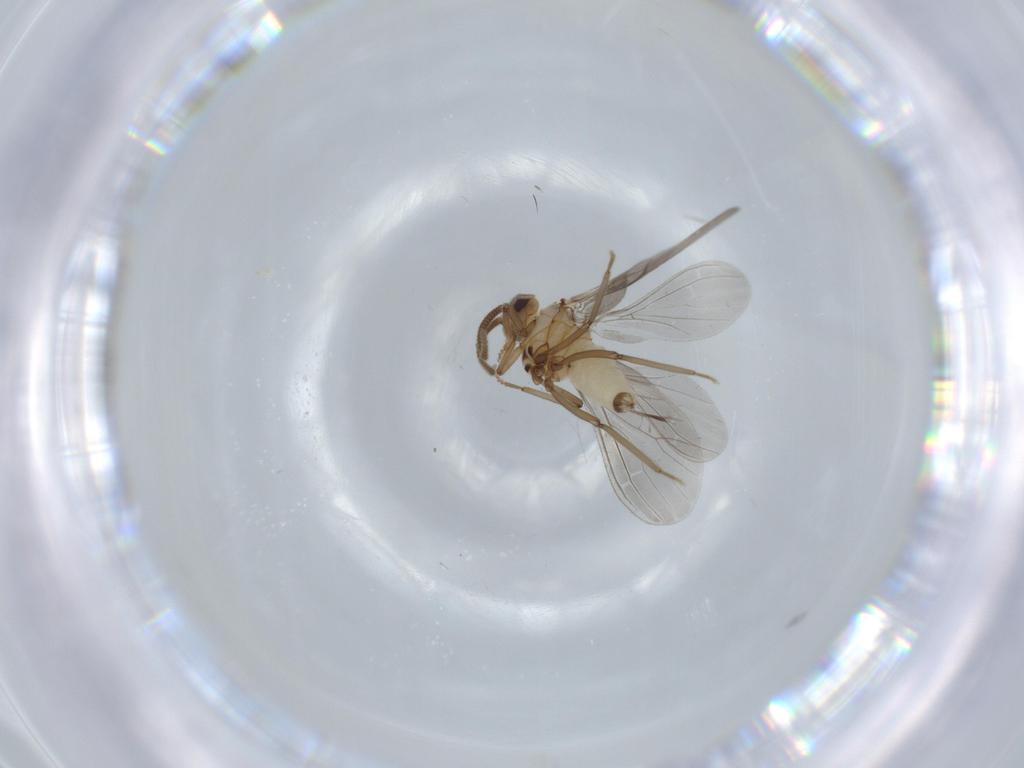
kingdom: Animalia
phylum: Arthropoda
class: Insecta
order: Neuroptera
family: Coniopterygidae
